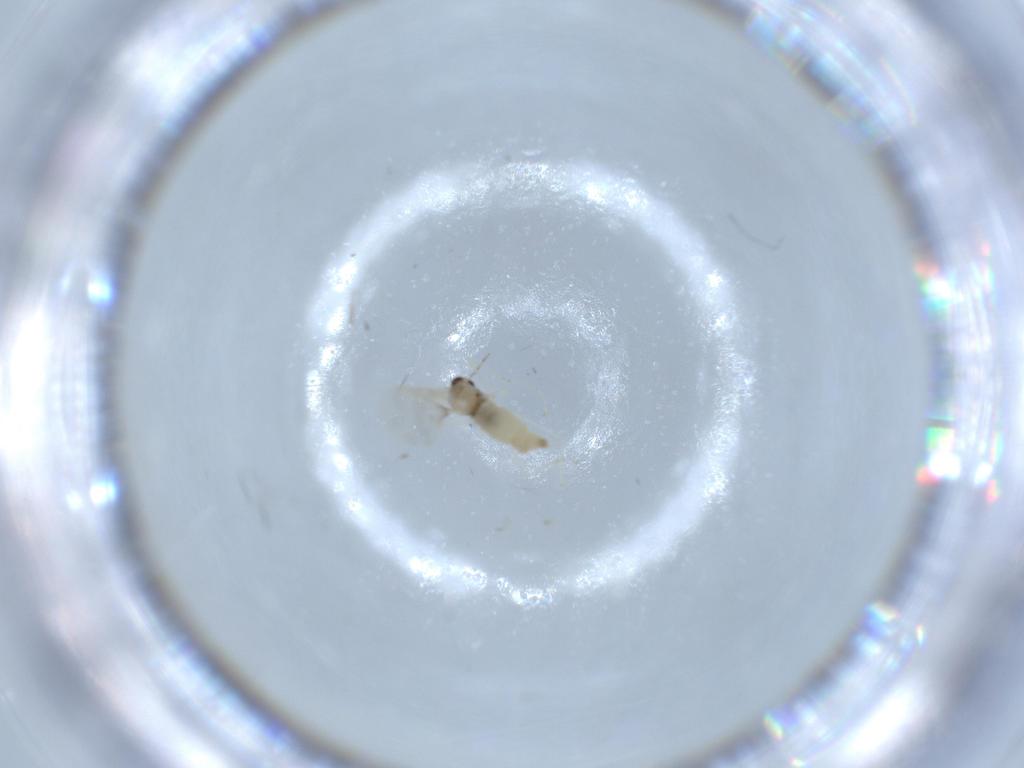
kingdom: Animalia
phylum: Arthropoda
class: Insecta
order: Diptera
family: Cecidomyiidae
